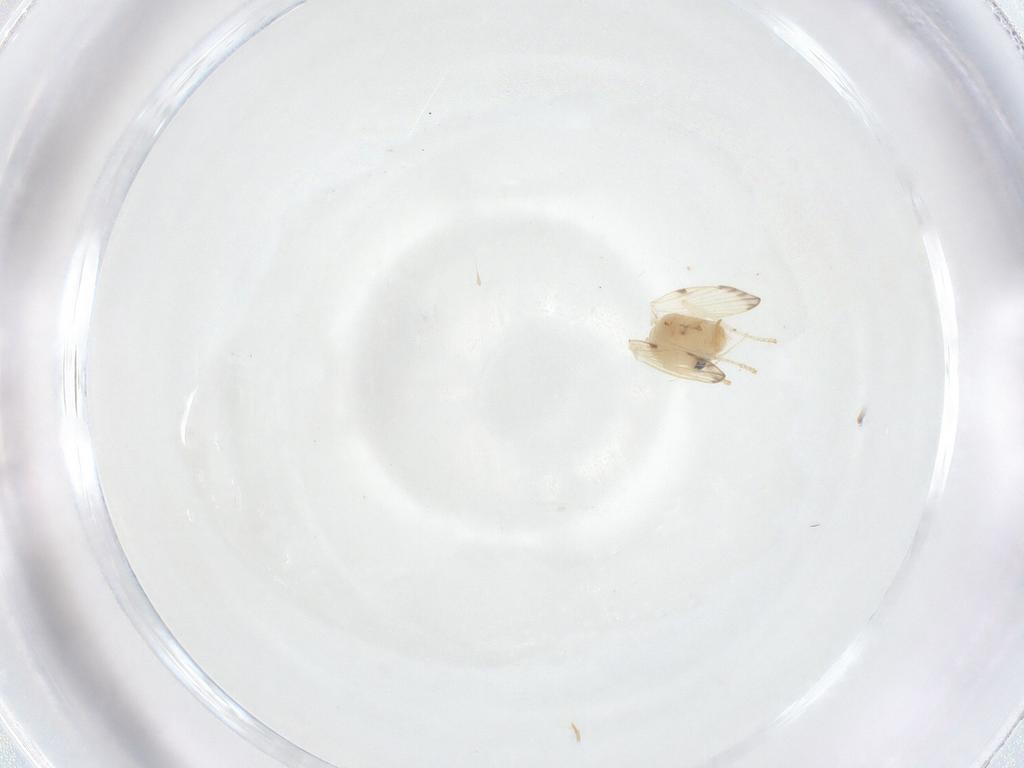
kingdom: Animalia
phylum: Arthropoda
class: Insecta
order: Diptera
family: Psychodidae
